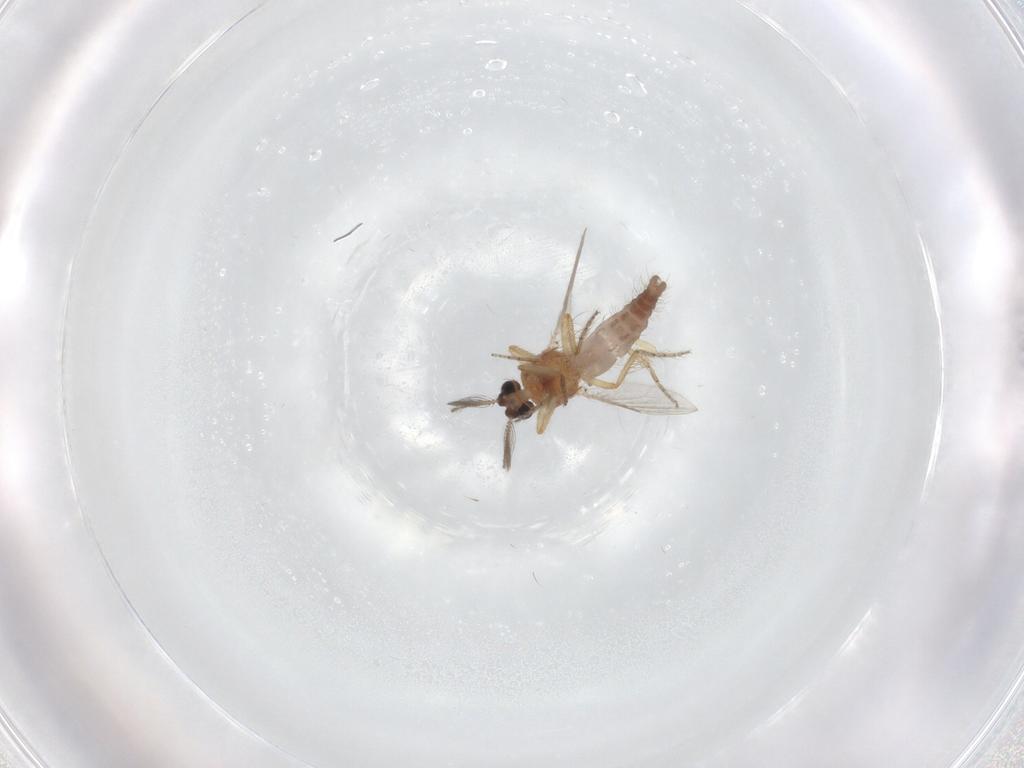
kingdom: Animalia
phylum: Arthropoda
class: Insecta
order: Diptera
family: Ceratopogonidae
